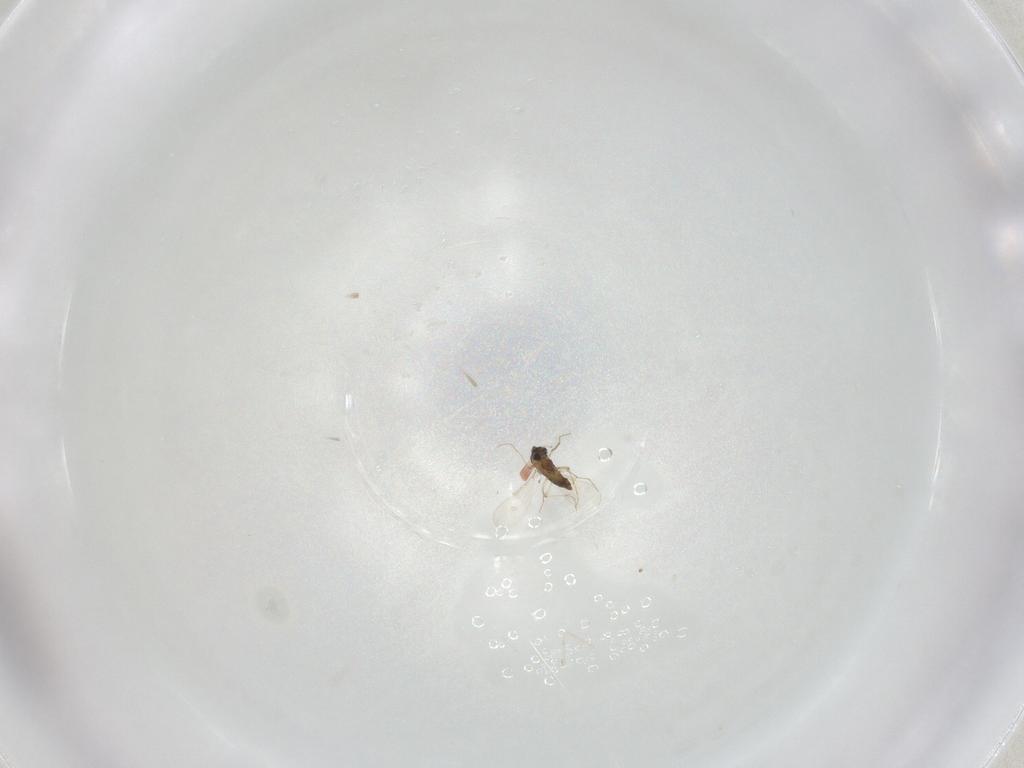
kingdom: Animalia
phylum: Arthropoda
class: Insecta
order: Diptera
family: Chironomidae
